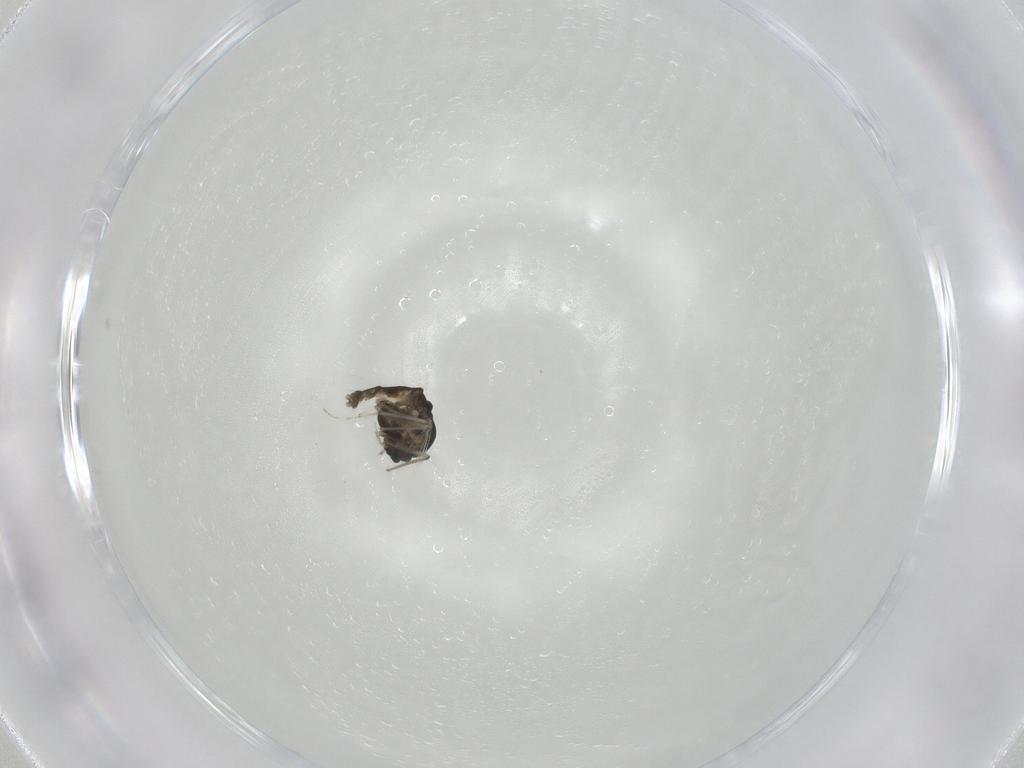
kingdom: Animalia
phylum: Arthropoda
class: Insecta
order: Diptera
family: Chironomidae
